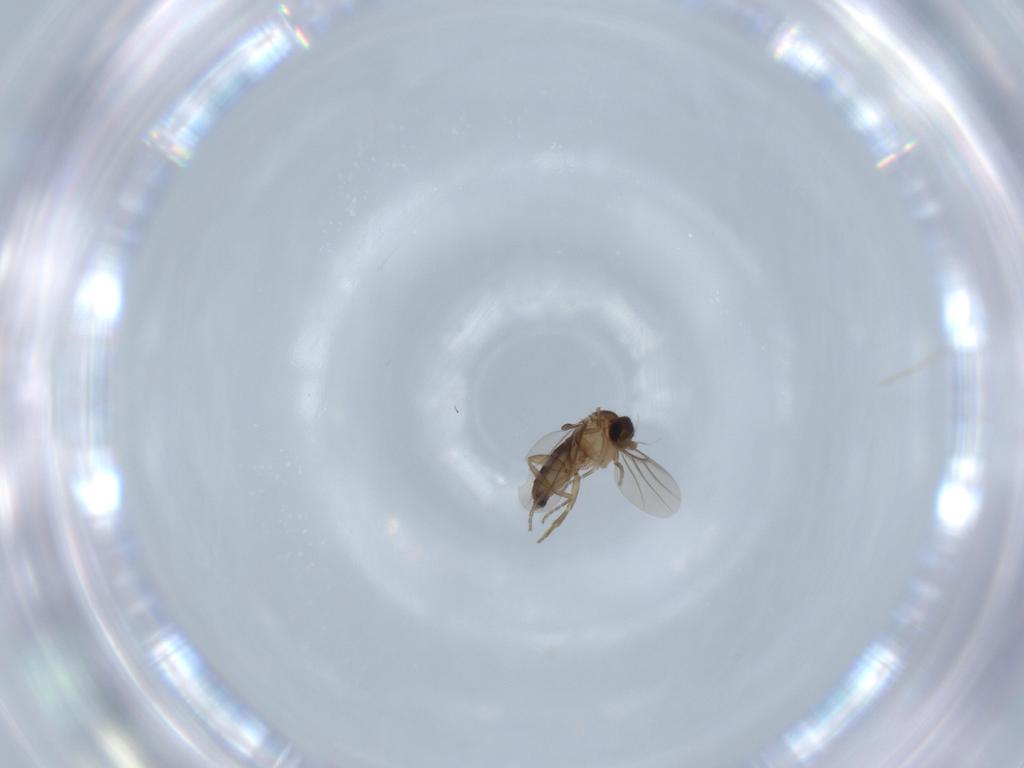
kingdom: Animalia
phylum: Arthropoda
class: Insecta
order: Diptera
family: Phoridae
